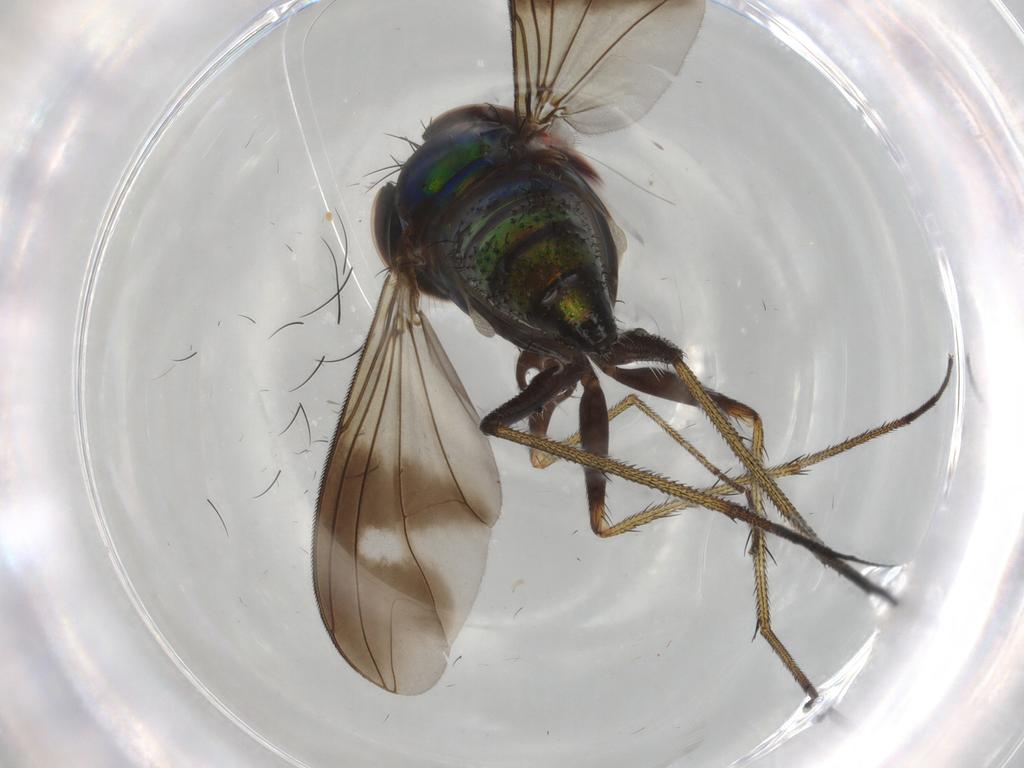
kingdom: Animalia
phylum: Arthropoda
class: Insecta
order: Diptera
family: Dolichopodidae
